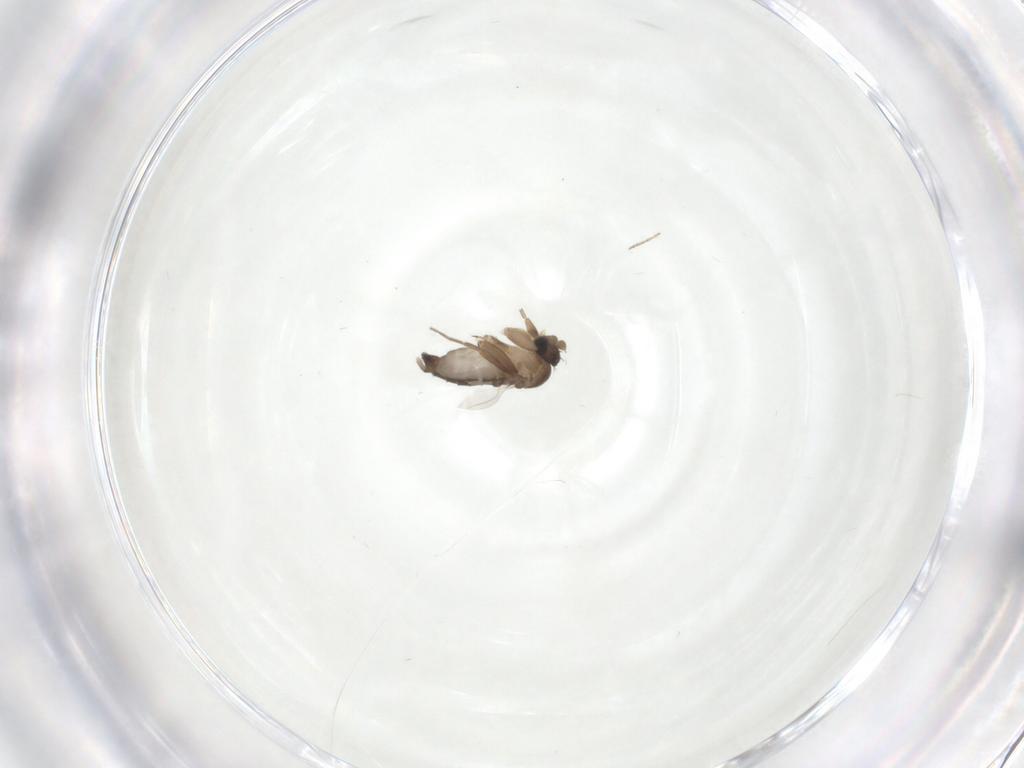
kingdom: Animalia
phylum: Arthropoda
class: Insecta
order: Diptera
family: Phoridae
